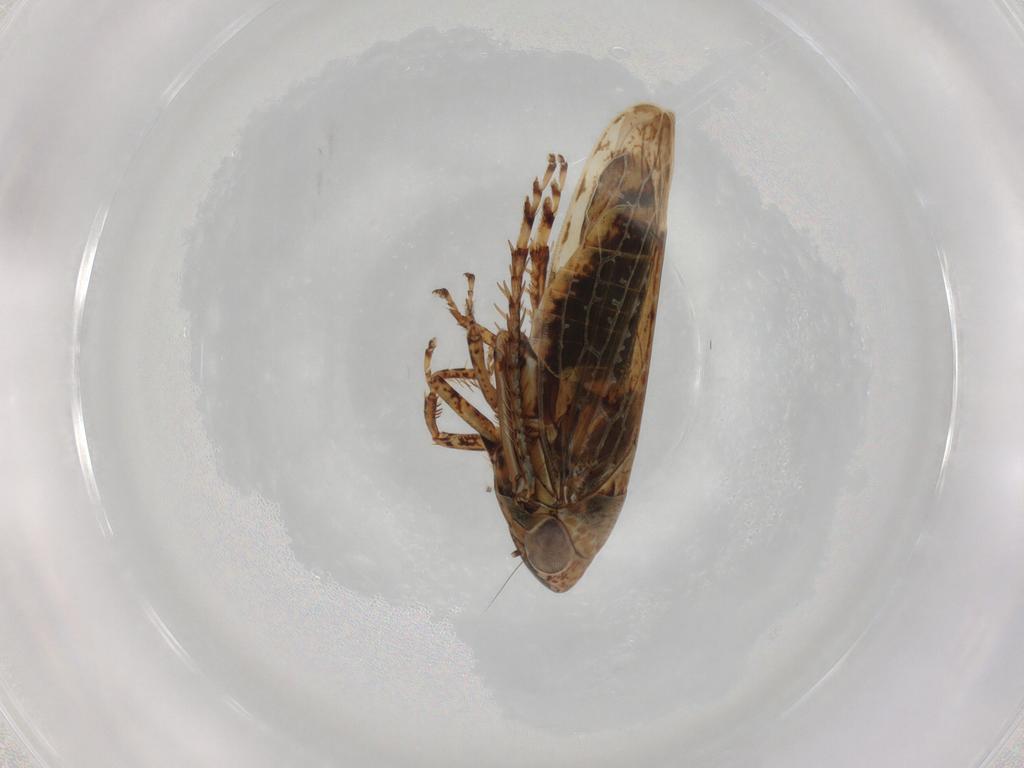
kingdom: Animalia
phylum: Arthropoda
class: Insecta
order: Hemiptera
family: Cicadellidae
